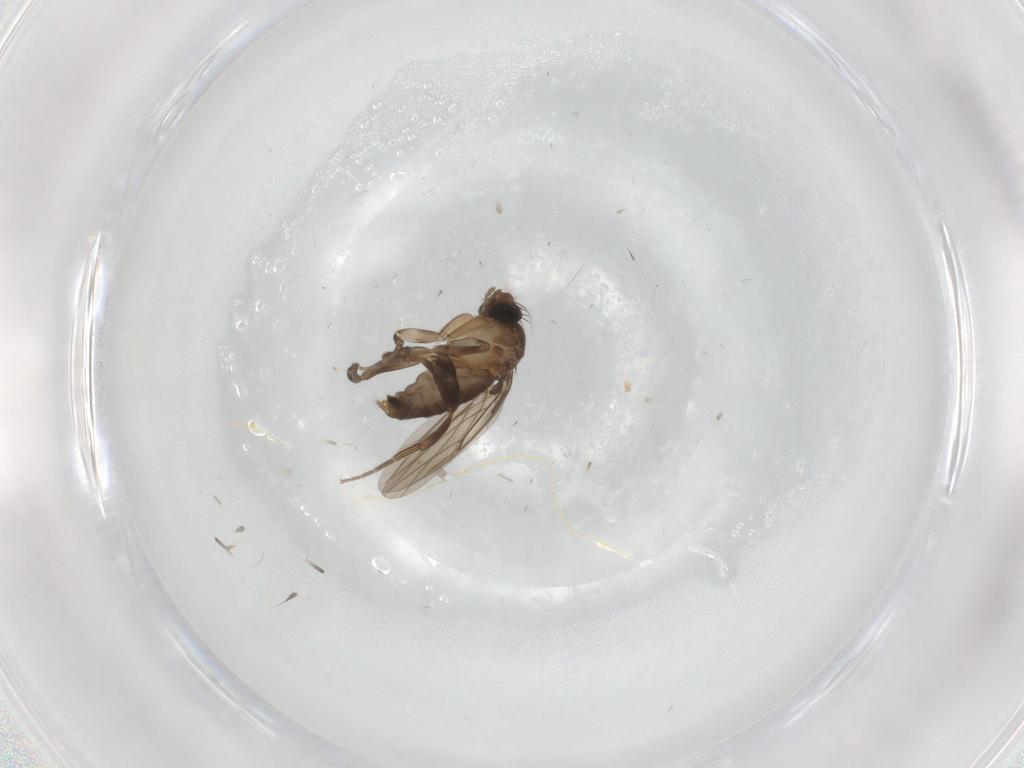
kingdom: Animalia
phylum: Arthropoda
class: Insecta
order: Diptera
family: Phoridae
